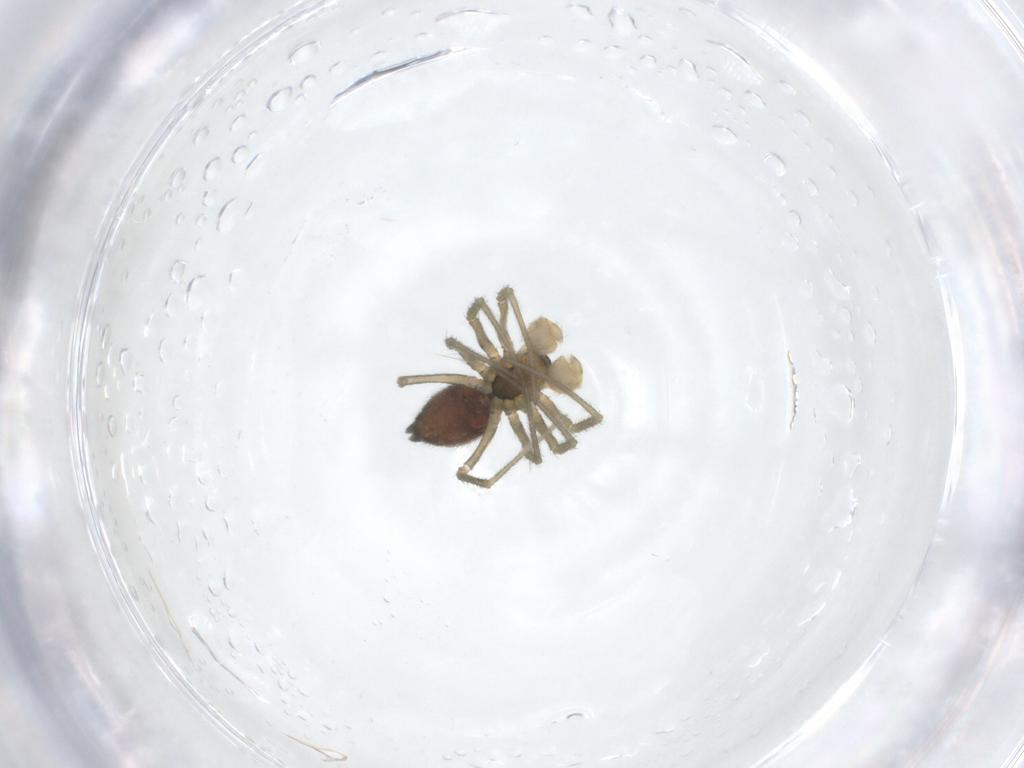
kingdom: Animalia
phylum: Arthropoda
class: Arachnida
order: Araneae
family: Linyphiidae
